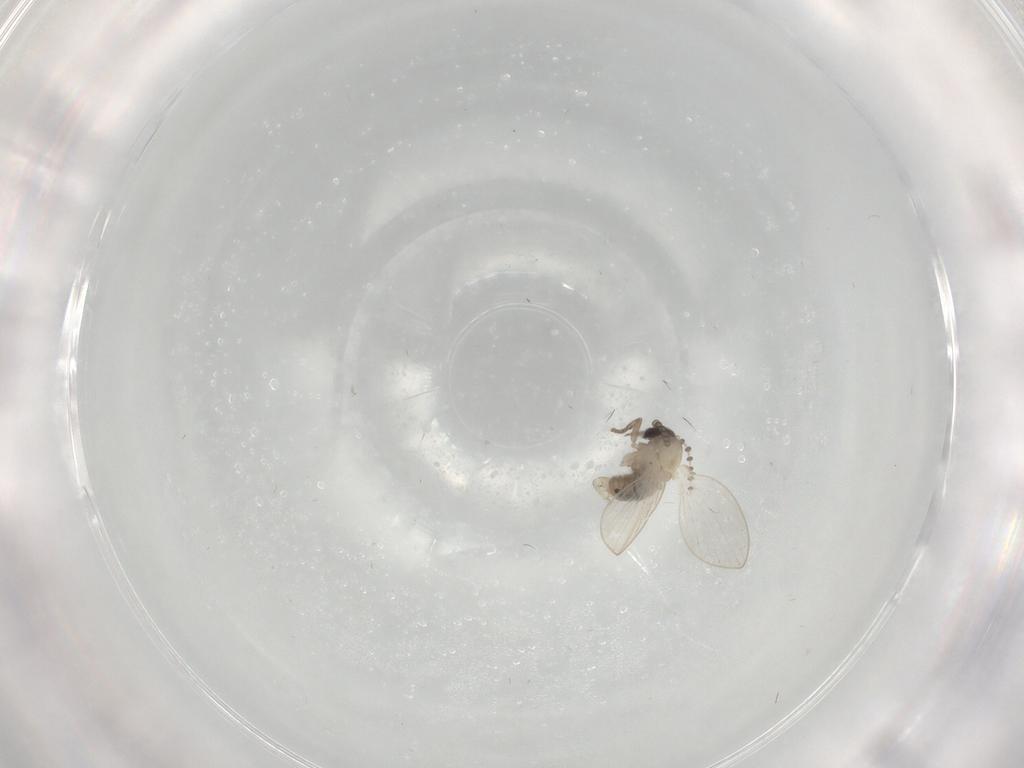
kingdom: Animalia
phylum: Arthropoda
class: Insecta
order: Diptera
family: Psychodidae
